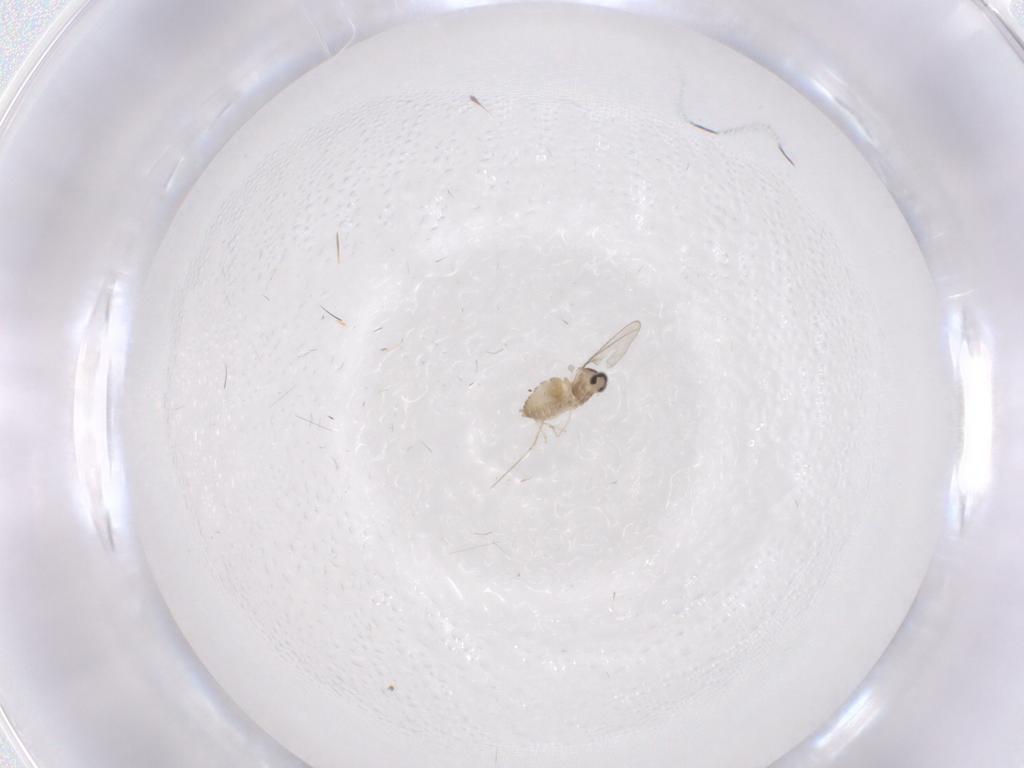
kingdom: Animalia
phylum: Arthropoda
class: Insecta
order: Diptera
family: Cecidomyiidae
